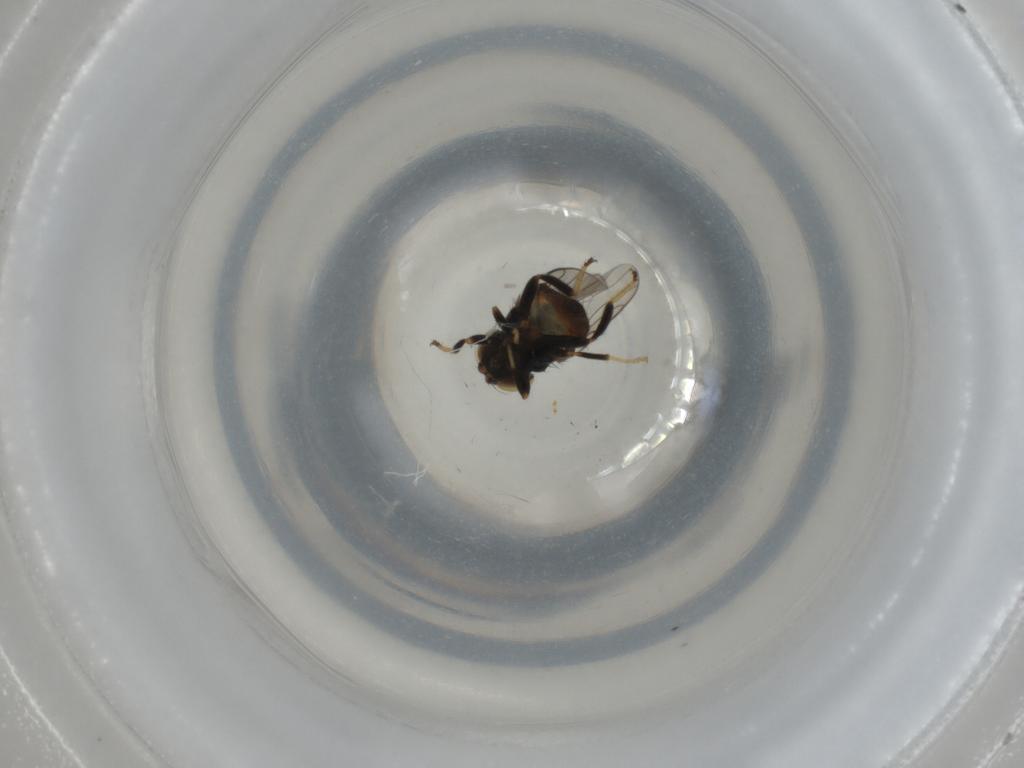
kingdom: Animalia
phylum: Arthropoda
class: Insecta
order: Diptera
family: Chloropidae
